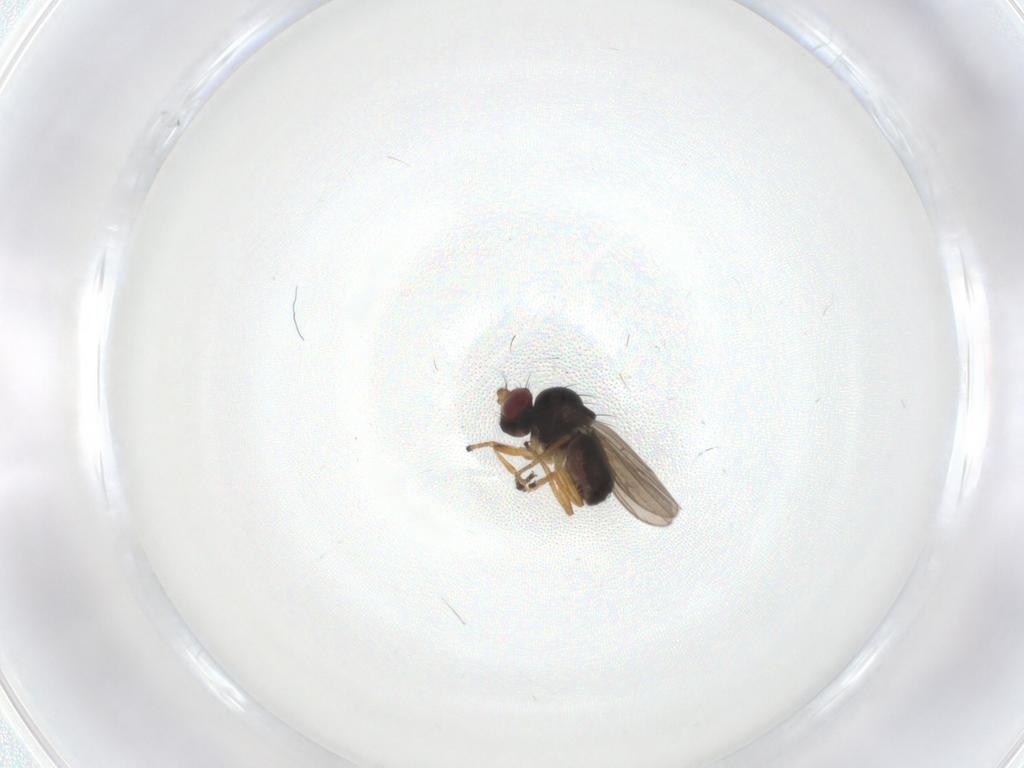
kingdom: Animalia
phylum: Arthropoda
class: Insecta
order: Diptera
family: Ephydridae
